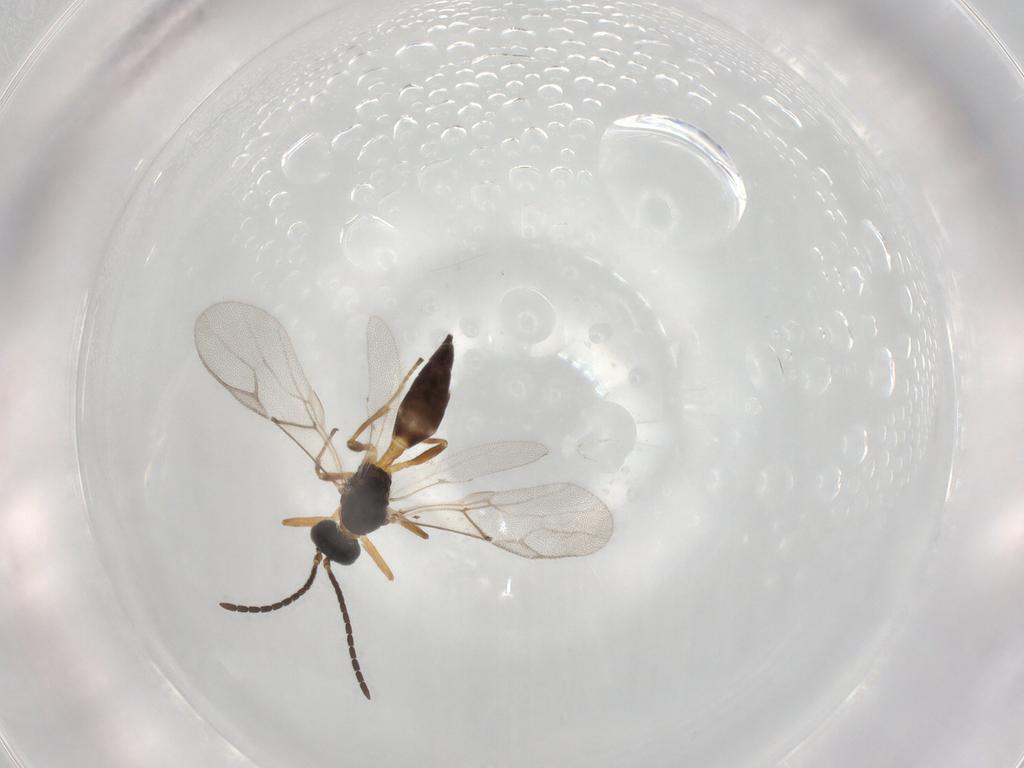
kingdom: Animalia
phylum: Arthropoda
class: Insecta
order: Hymenoptera
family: Braconidae
